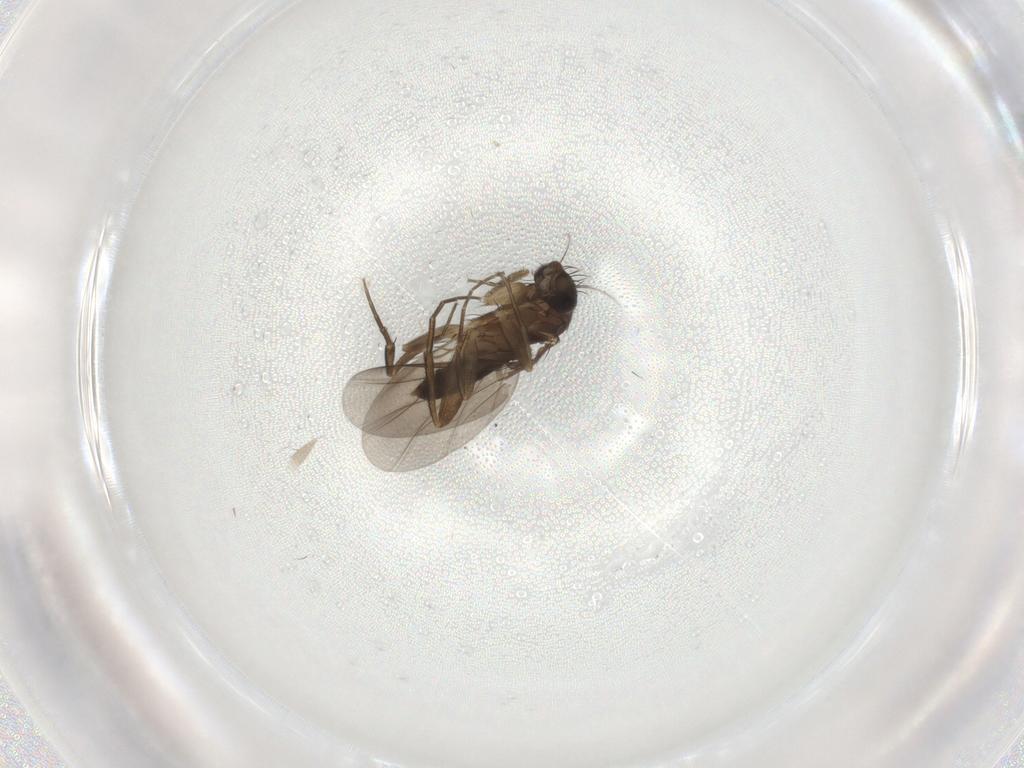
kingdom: Animalia
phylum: Arthropoda
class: Insecta
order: Diptera
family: Phoridae
